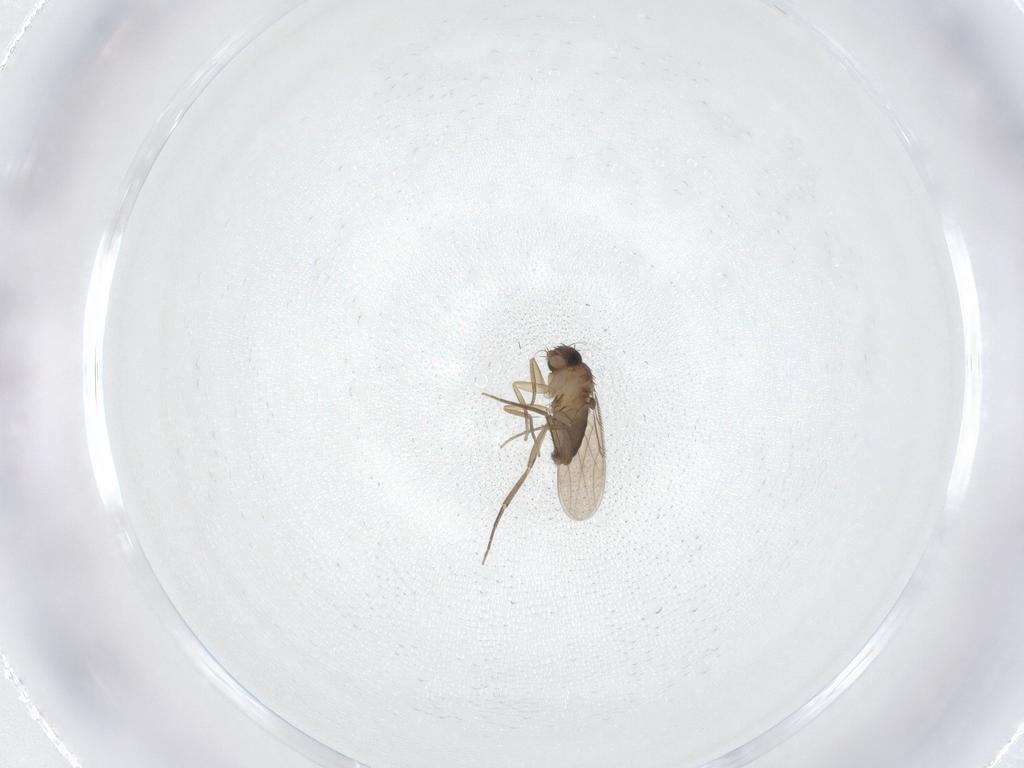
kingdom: Animalia
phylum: Arthropoda
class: Insecta
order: Diptera
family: Phoridae
